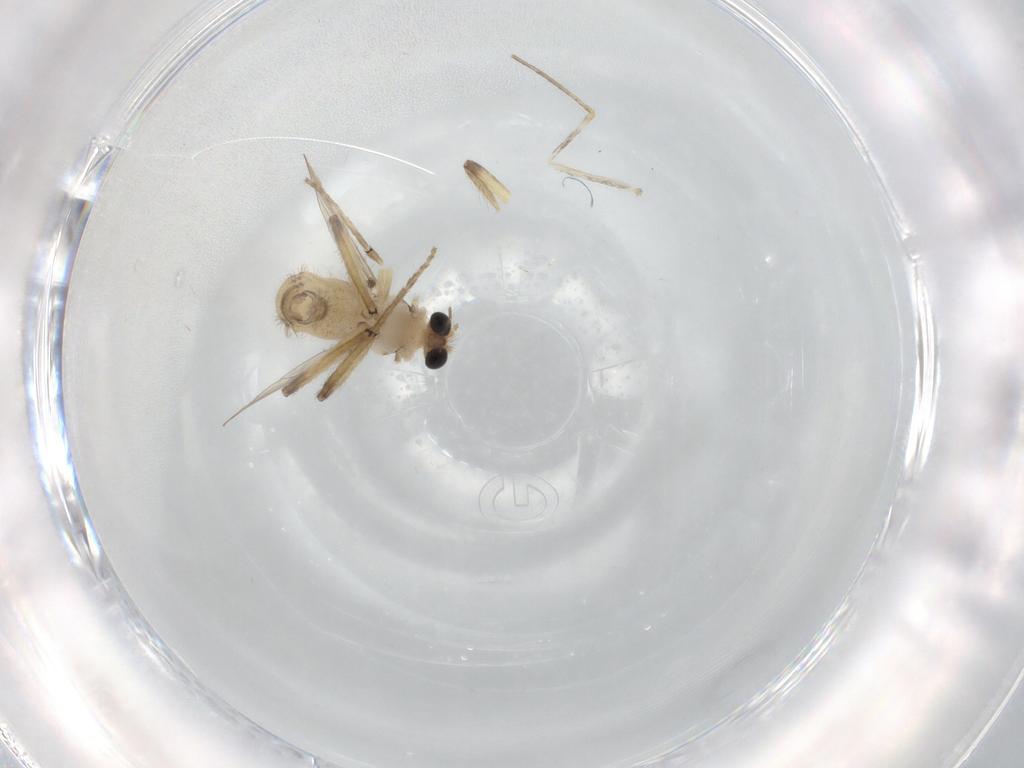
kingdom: Animalia
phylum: Arthropoda
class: Insecta
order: Diptera
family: Chironomidae
